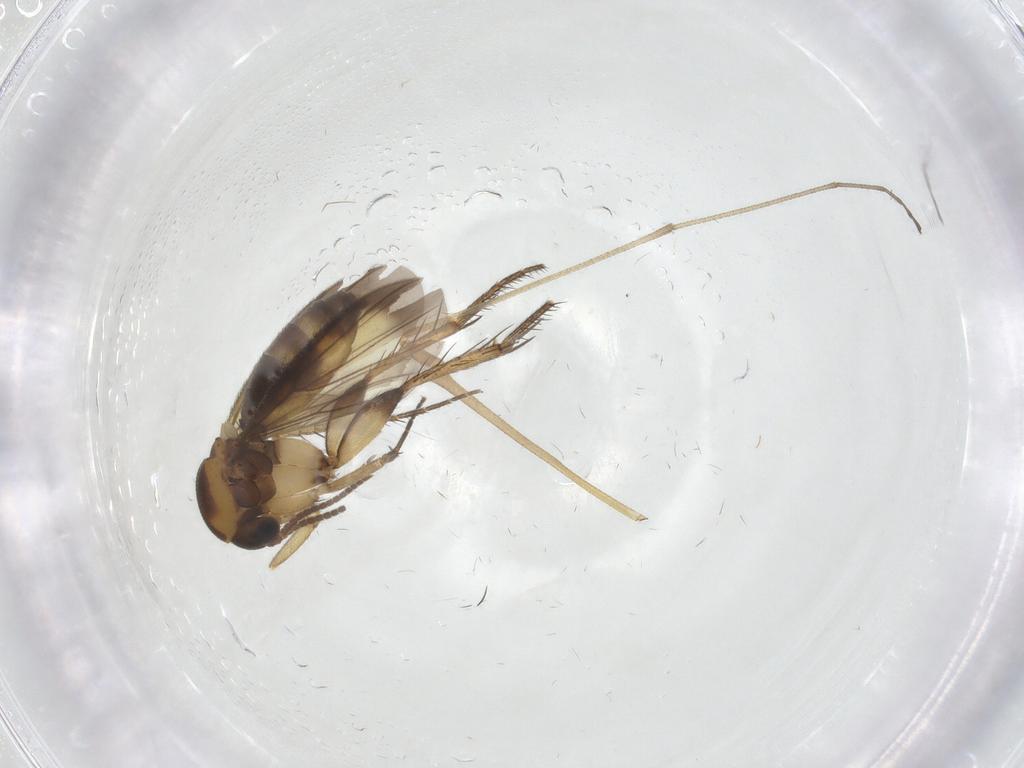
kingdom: Animalia
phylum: Arthropoda
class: Insecta
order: Diptera
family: Mycetophilidae
